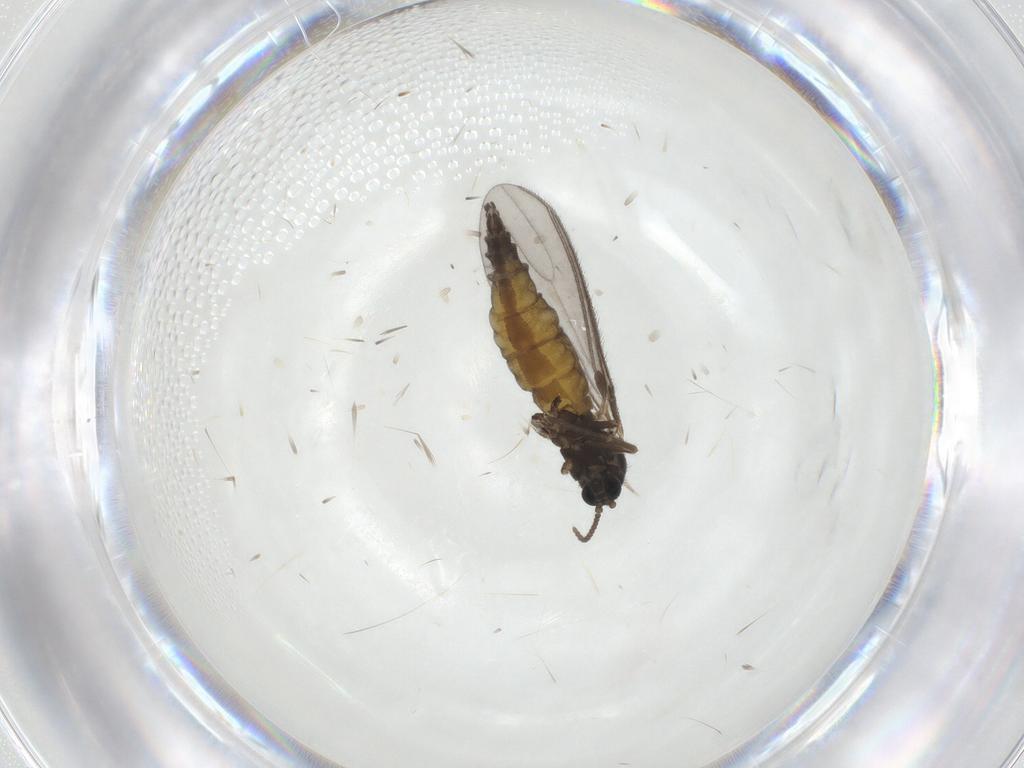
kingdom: Animalia
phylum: Arthropoda
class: Insecta
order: Diptera
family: Sciaridae
